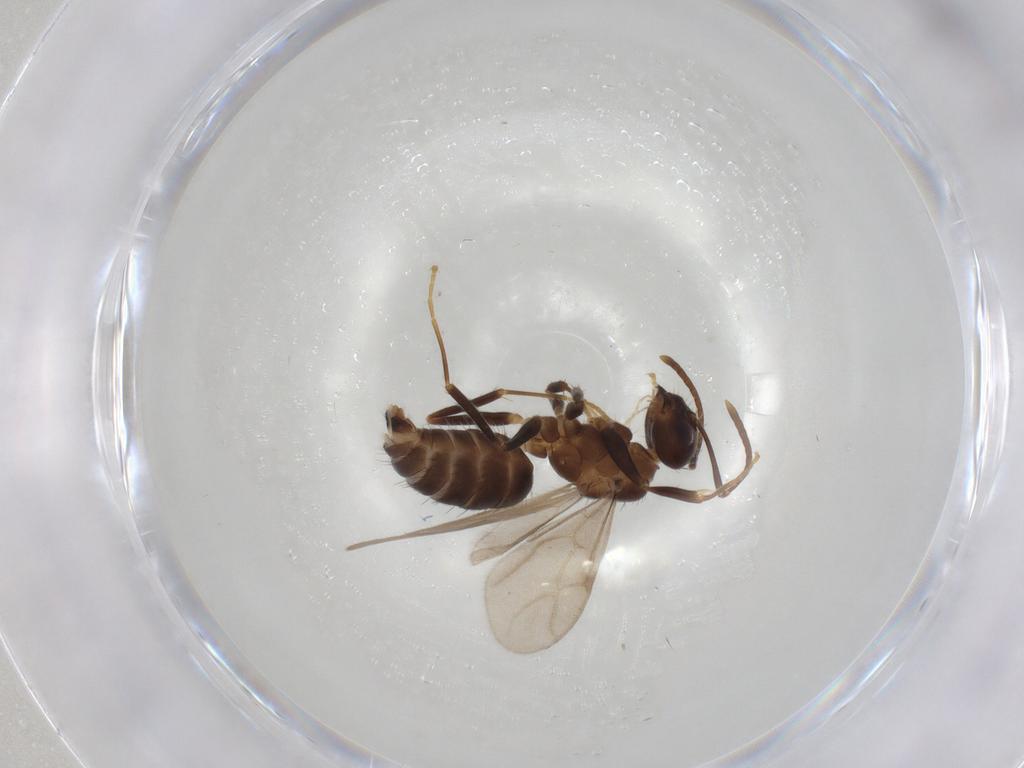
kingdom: Animalia
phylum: Arthropoda
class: Insecta
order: Hymenoptera
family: Formicidae
